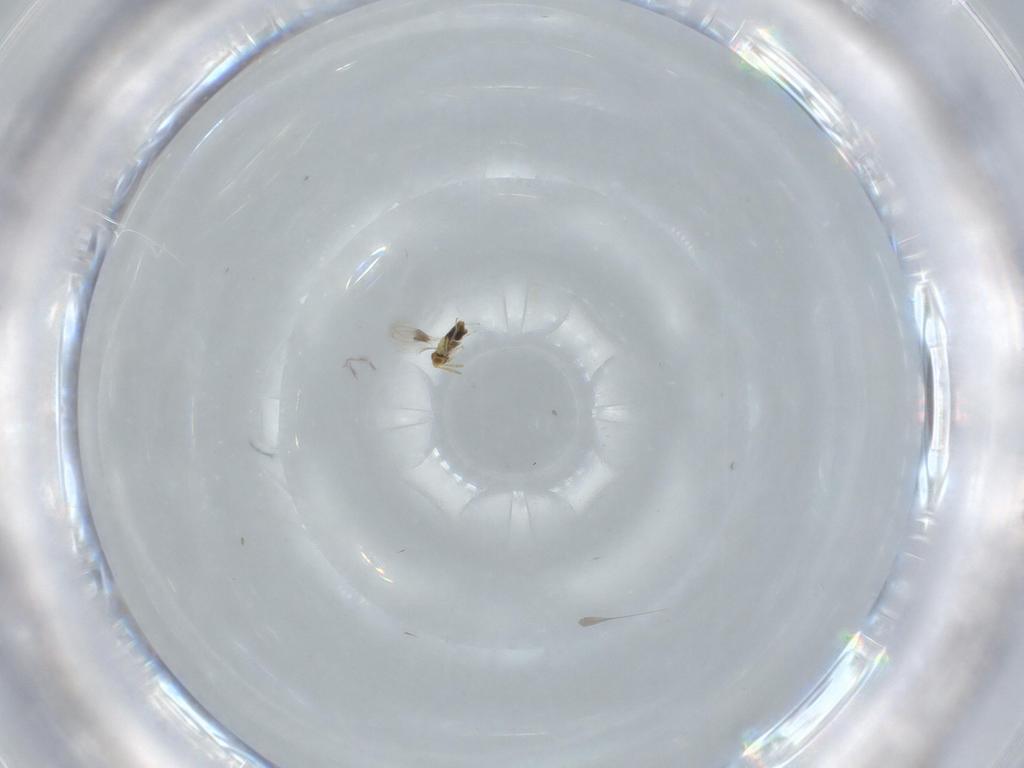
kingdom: Animalia
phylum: Arthropoda
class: Insecta
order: Hymenoptera
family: Aphelinidae
